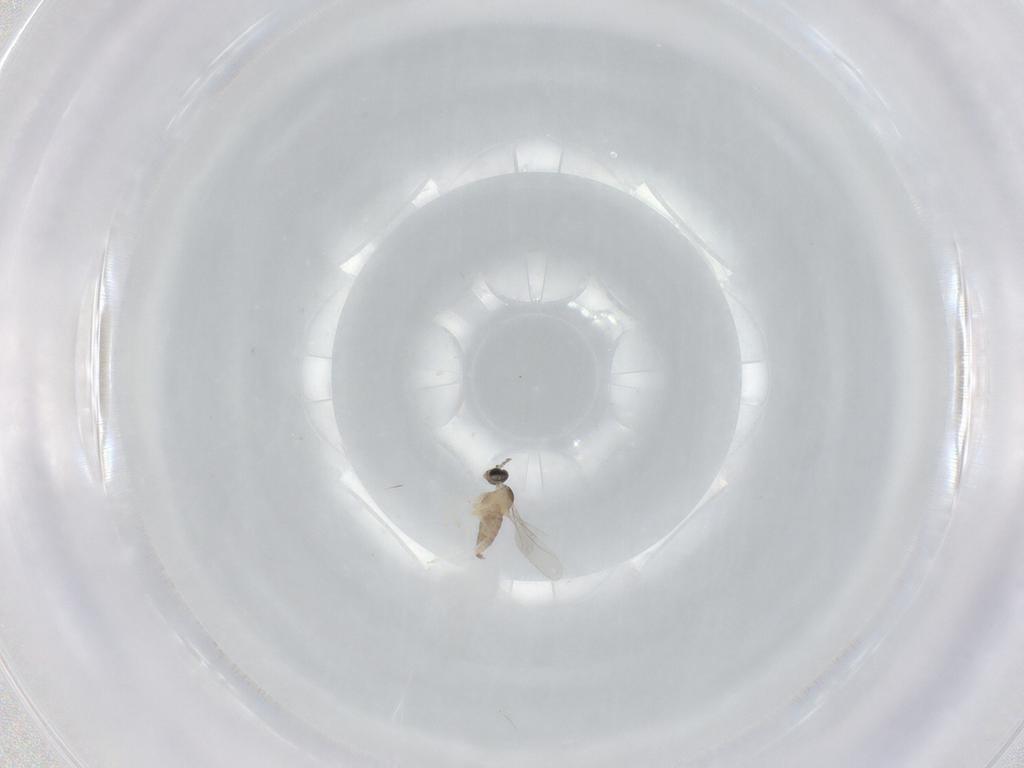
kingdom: Animalia
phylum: Arthropoda
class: Insecta
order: Diptera
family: Cecidomyiidae
